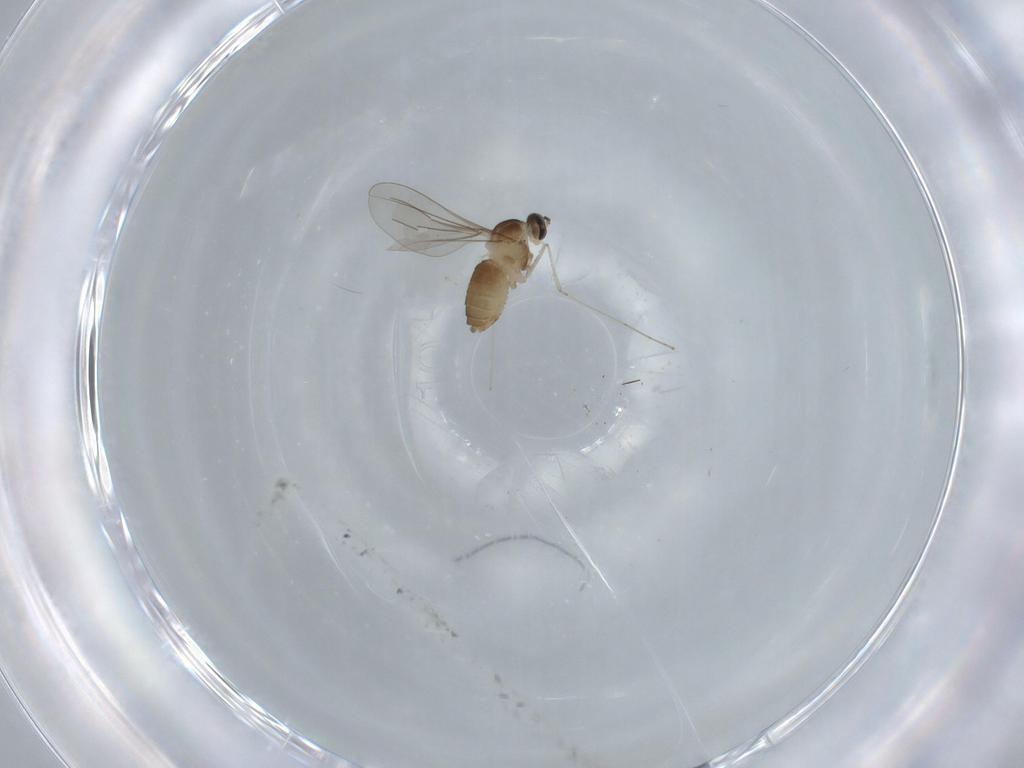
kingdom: Animalia
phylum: Arthropoda
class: Insecta
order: Diptera
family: Cecidomyiidae
